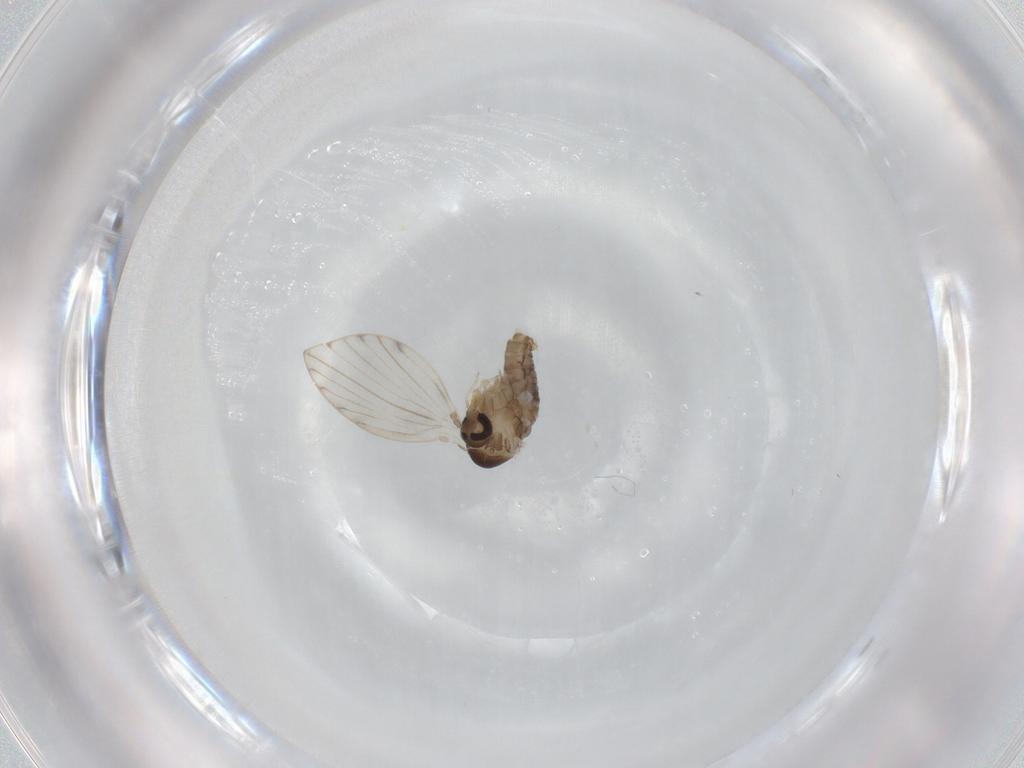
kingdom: Animalia
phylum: Arthropoda
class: Insecta
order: Diptera
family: Psychodidae
